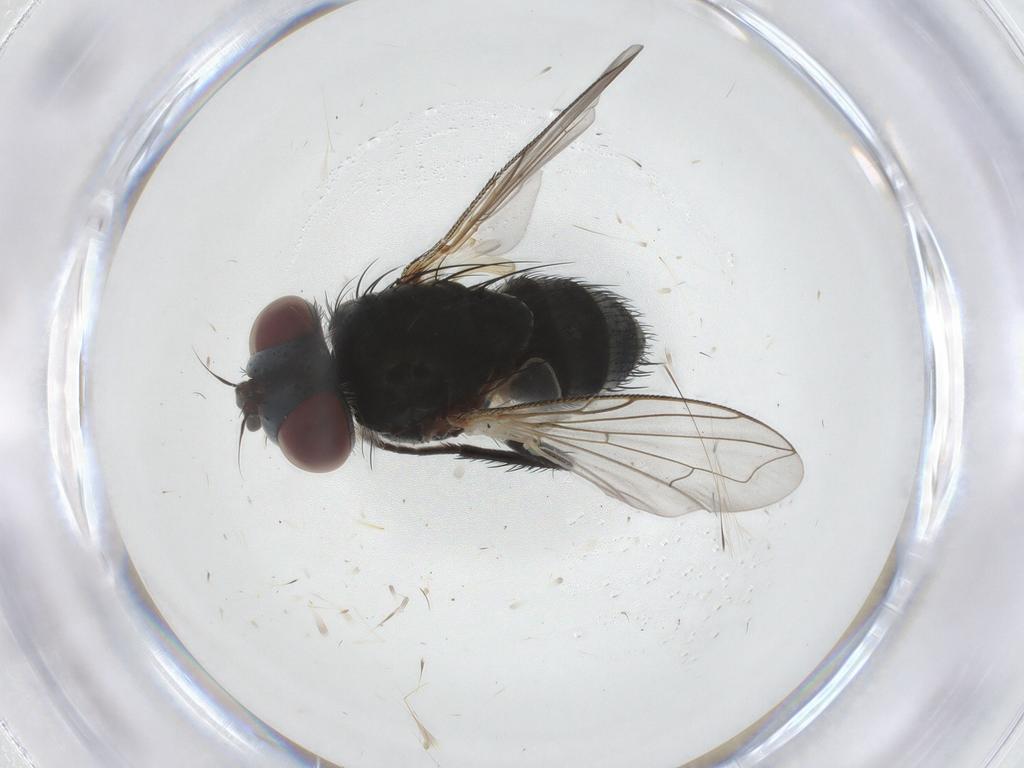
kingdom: Animalia
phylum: Arthropoda
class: Insecta
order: Diptera
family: Tachinidae
